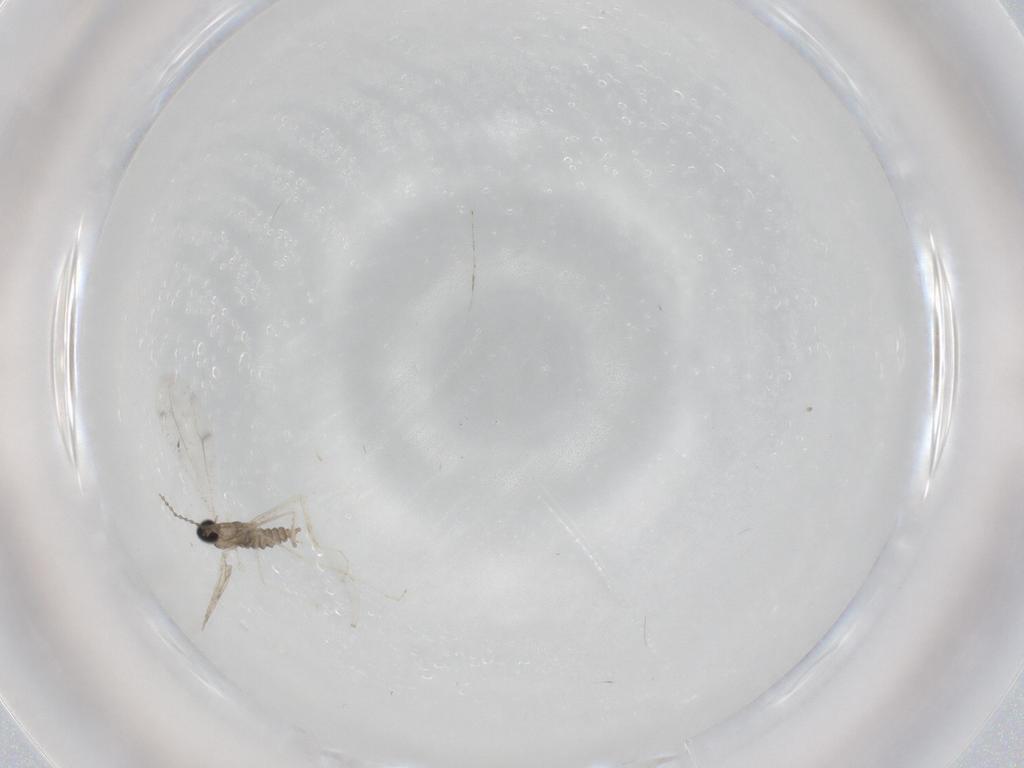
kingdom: Animalia
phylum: Arthropoda
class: Insecta
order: Diptera
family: Cecidomyiidae
